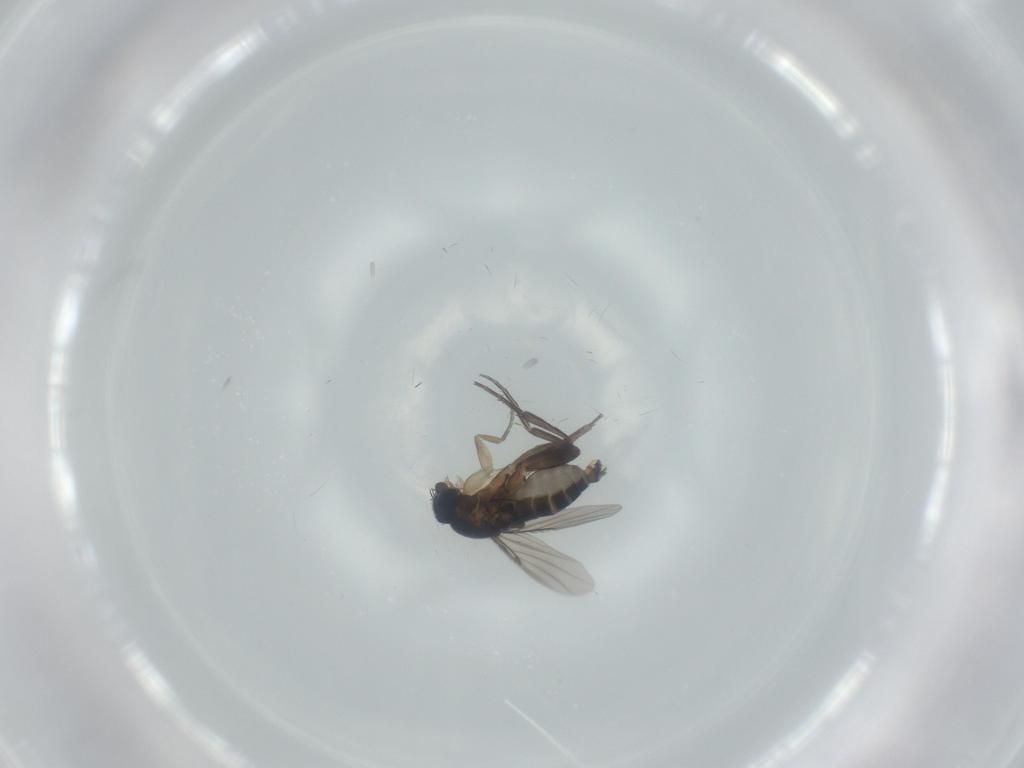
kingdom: Animalia
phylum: Arthropoda
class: Insecta
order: Diptera
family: Phoridae
